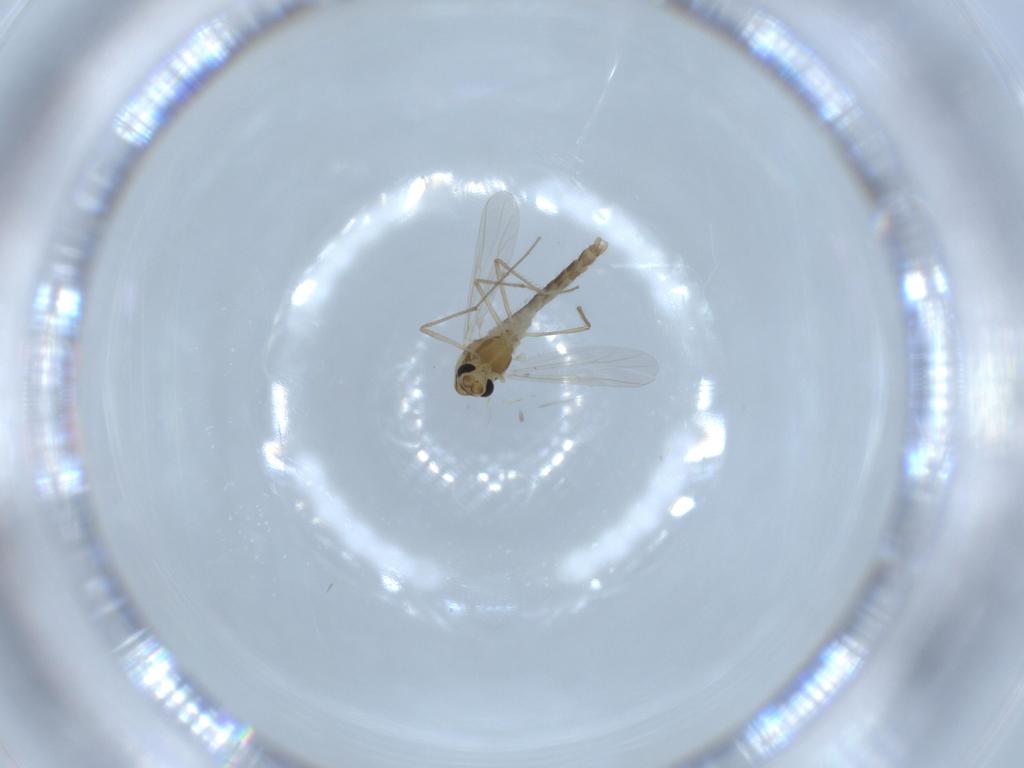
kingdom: Animalia
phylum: Arthropoda
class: Insecta
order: Diptera
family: Chironomidae
